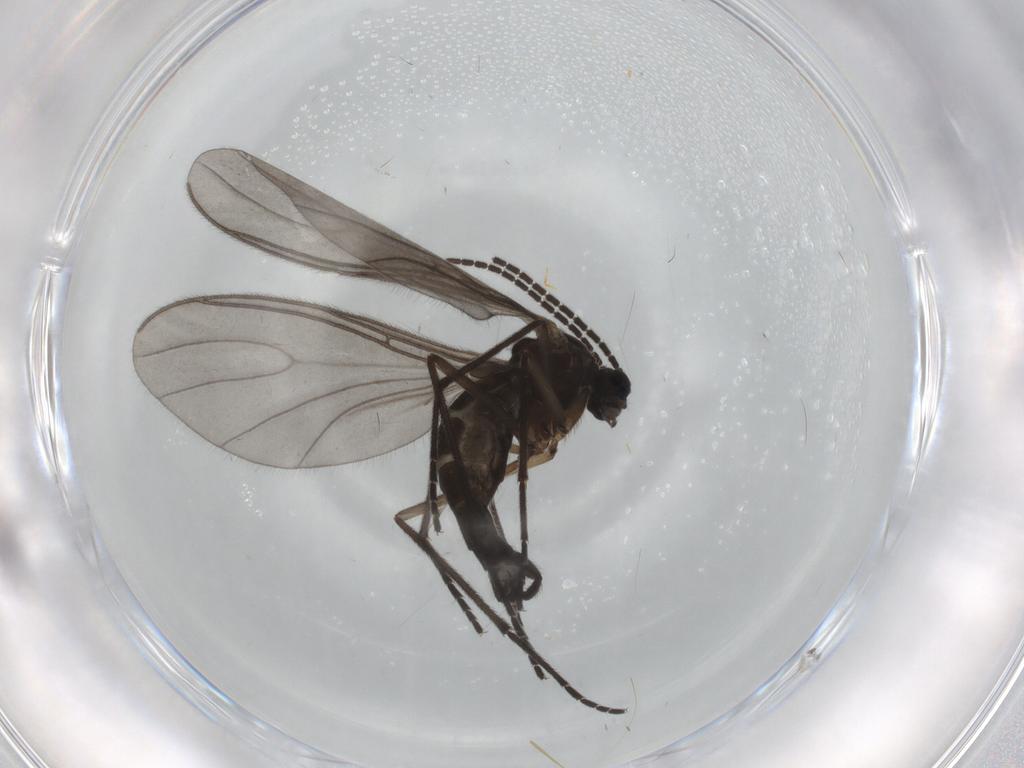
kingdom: Animalia
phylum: Arthropoda
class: Insecta
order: Diptera
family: Sciaridae
